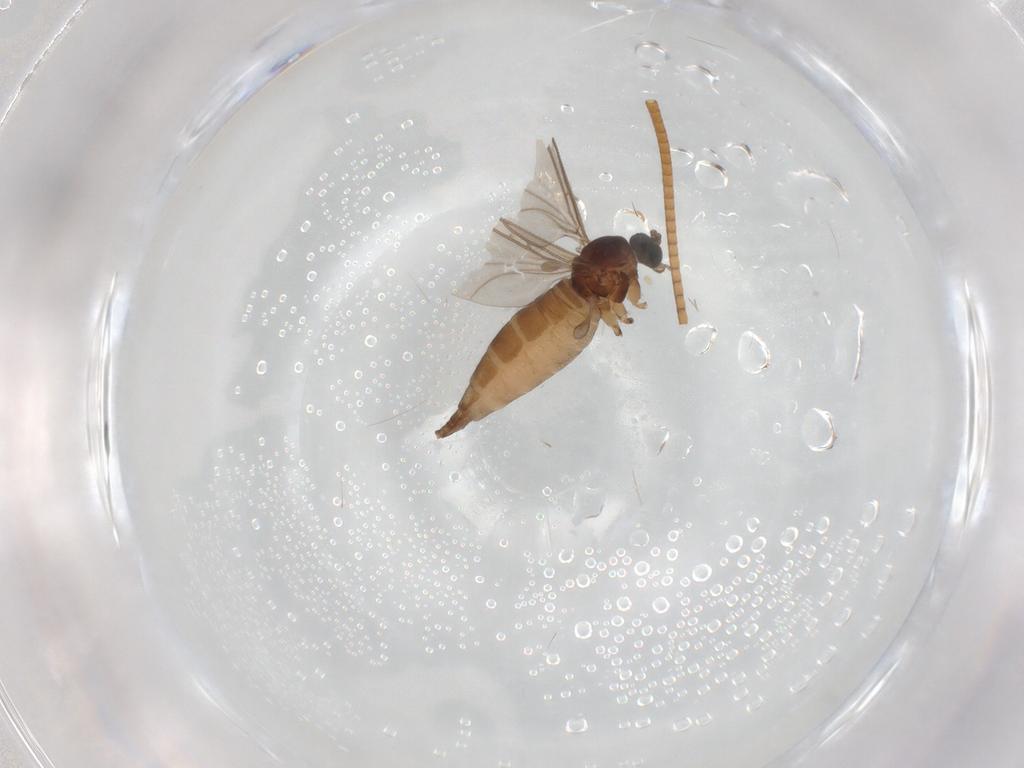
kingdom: Animalia
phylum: Arthropoda
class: Insecta
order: Diptera
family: Sciaridae
